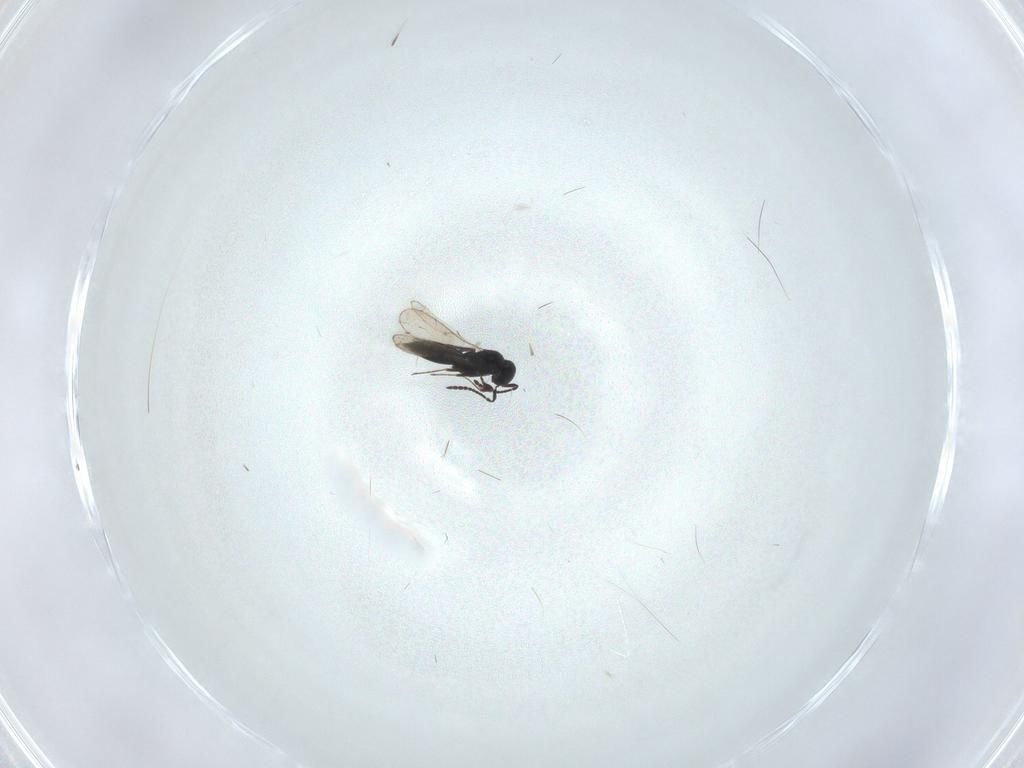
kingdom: Animalia
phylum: Arthropoda
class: Insecta
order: Hymenoptera
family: Scelionidae
